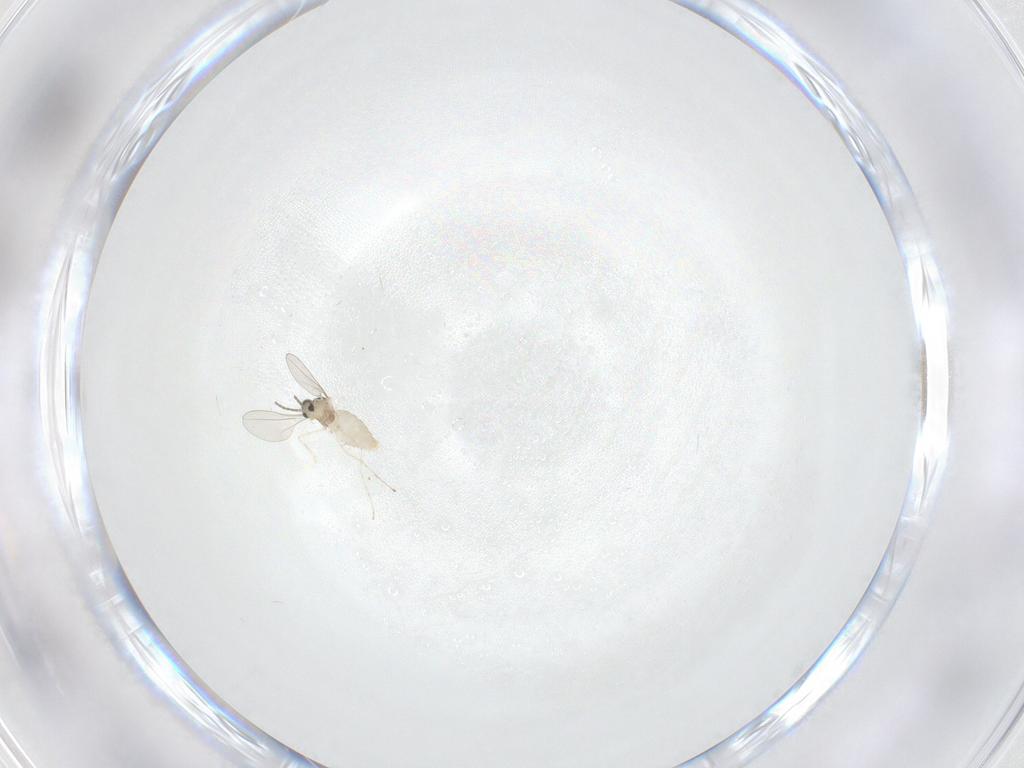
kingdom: Animalia
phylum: Arthropoda
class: Insecta
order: Diptera
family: Cecidomyiidae
